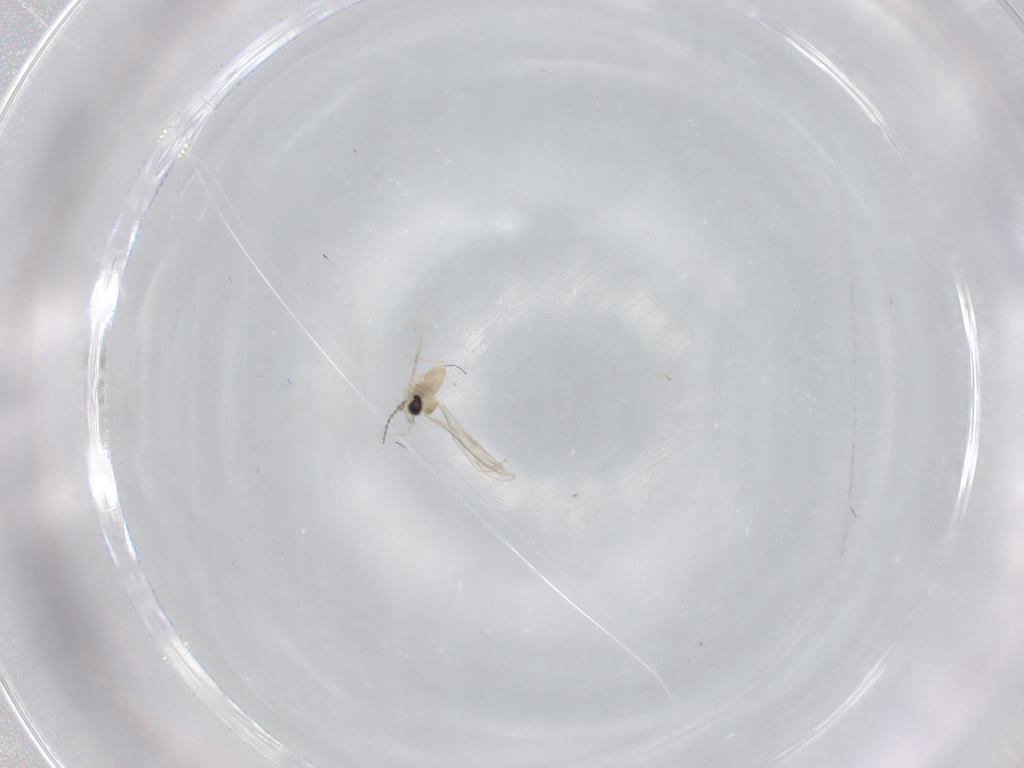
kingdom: Animalia
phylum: Arthropoda
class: Insecta
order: Diptera
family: Cecidomyiidae
